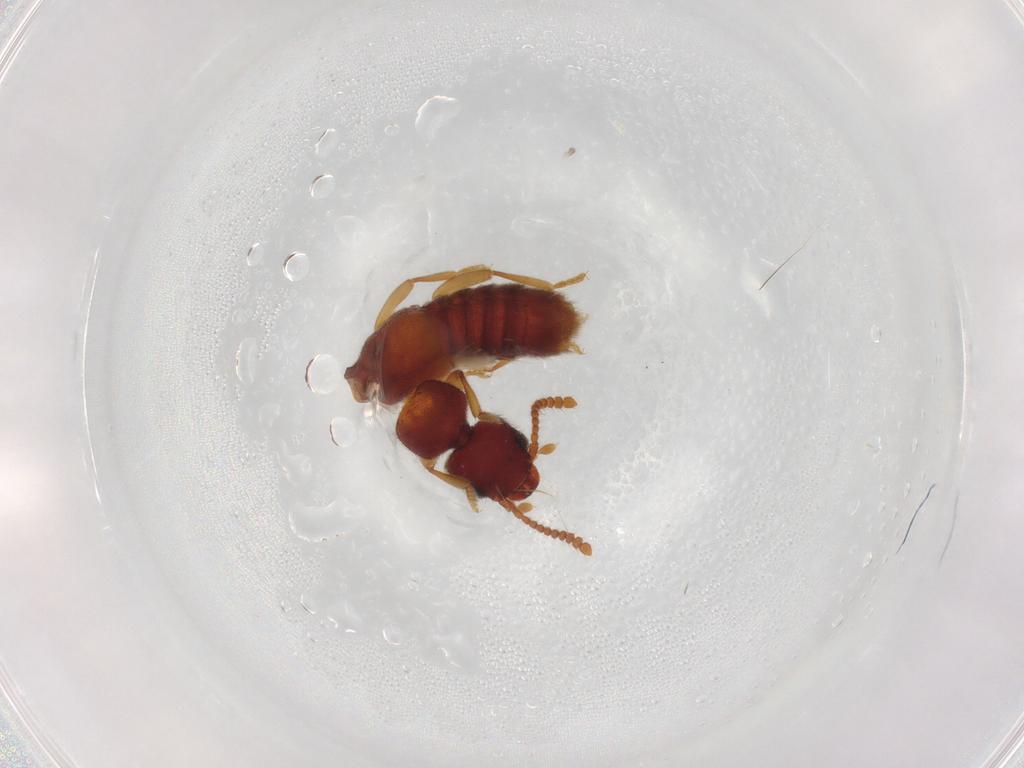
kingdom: Animalia
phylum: Arthropoda
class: Insecta
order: Coleoptera
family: Staphylinidae
